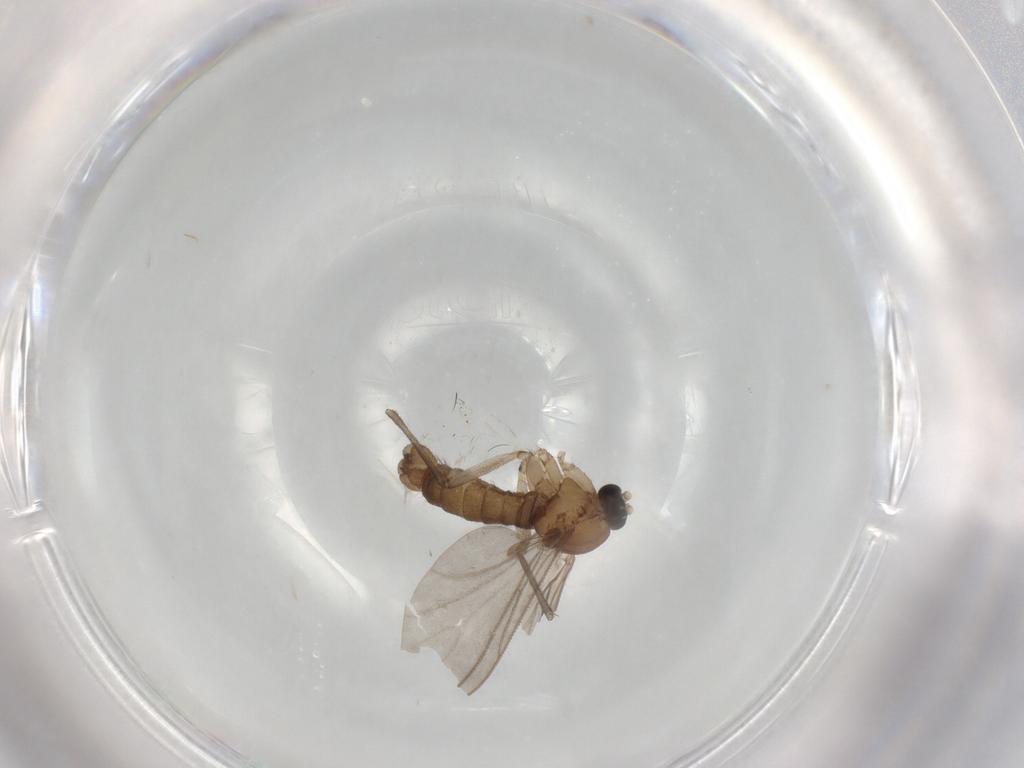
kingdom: Animalia
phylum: Arthropoda
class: Insecta
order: Diptera
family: Sciaridae
